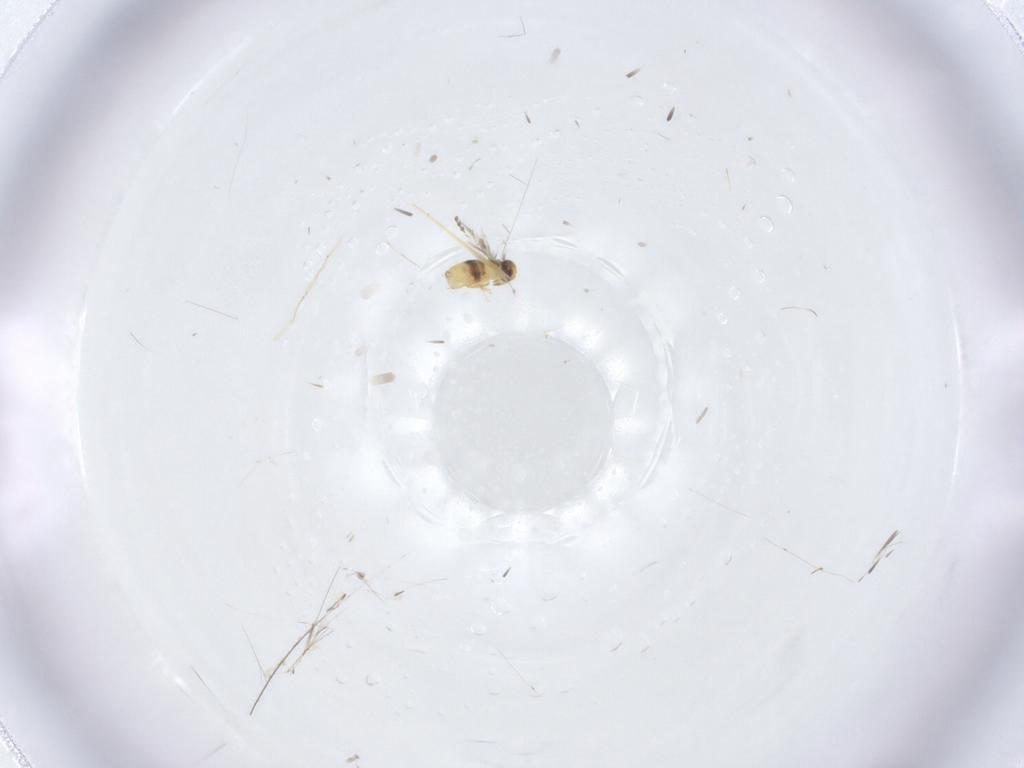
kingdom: Animalia
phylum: Arthropoda
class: Insecta
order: Hymenoptera
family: Signiphoridae
